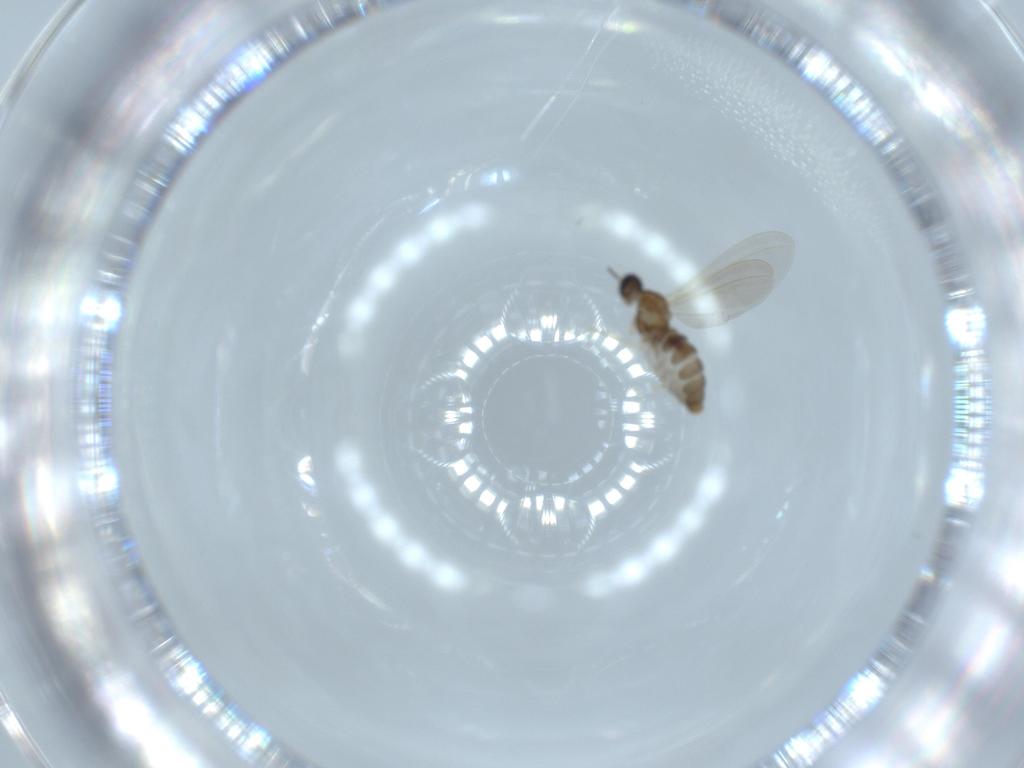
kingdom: Animalia
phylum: Arthropoda
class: Insecta
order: Diptera
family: Cecidomyiidae
